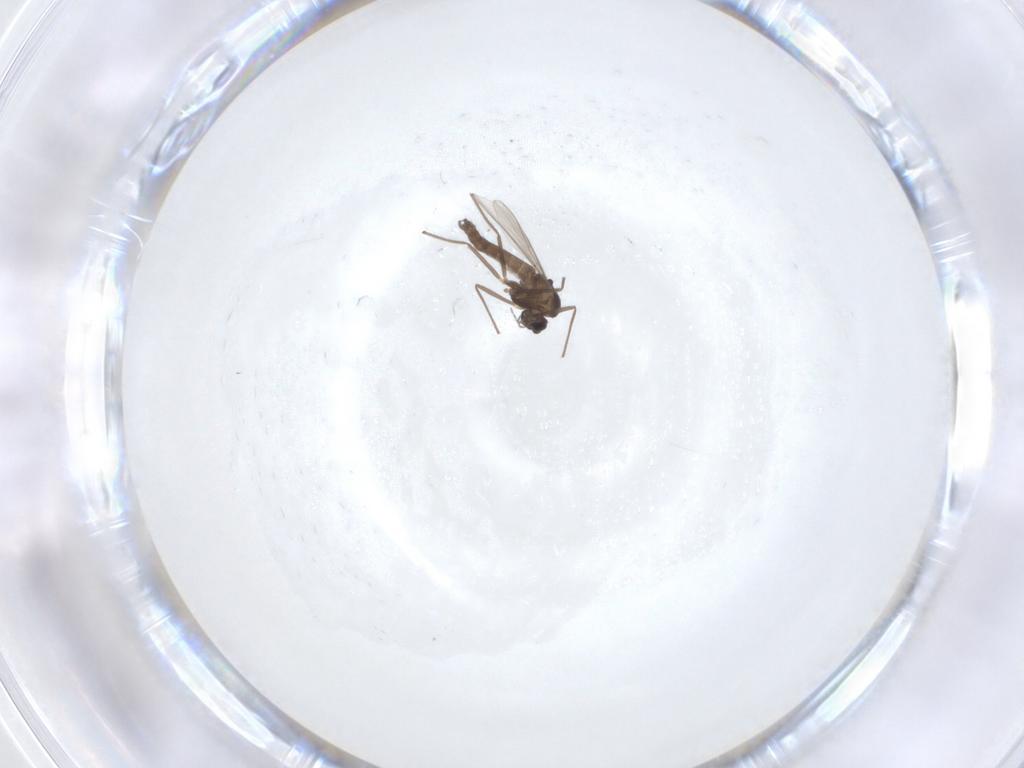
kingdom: Animalia
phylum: Arthropoda
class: Insecta
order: Diptera
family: Chironomidae
